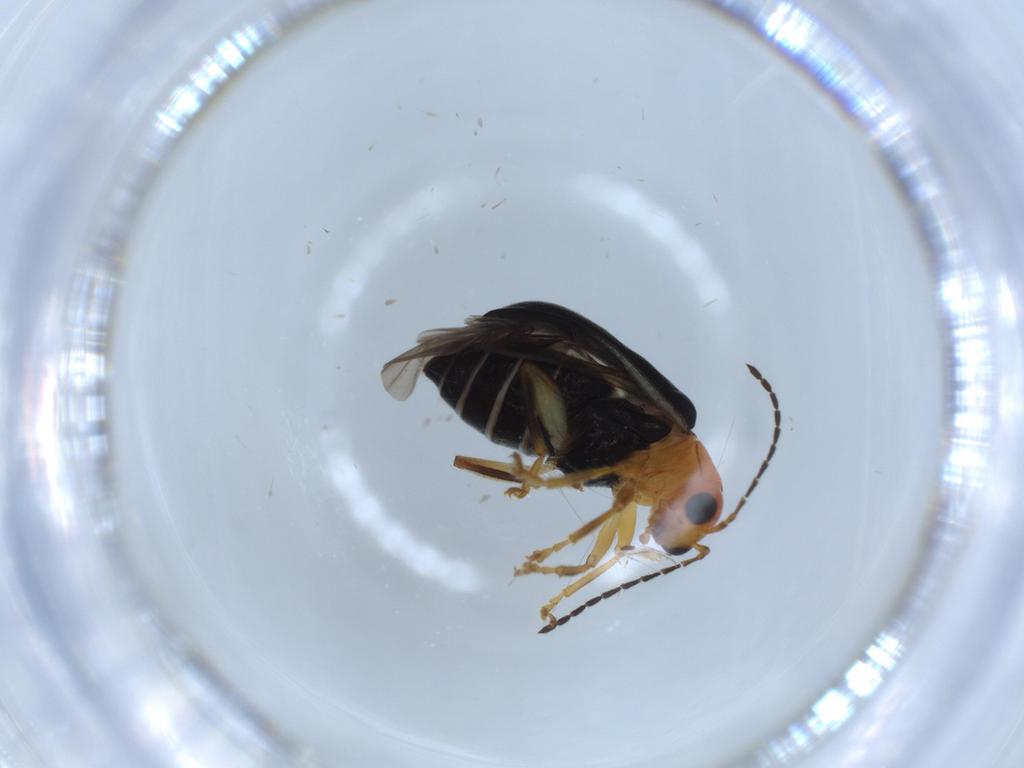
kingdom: Animalia
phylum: Arthropoda
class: Insecta
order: Coleoptera
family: Chrysomelidae
